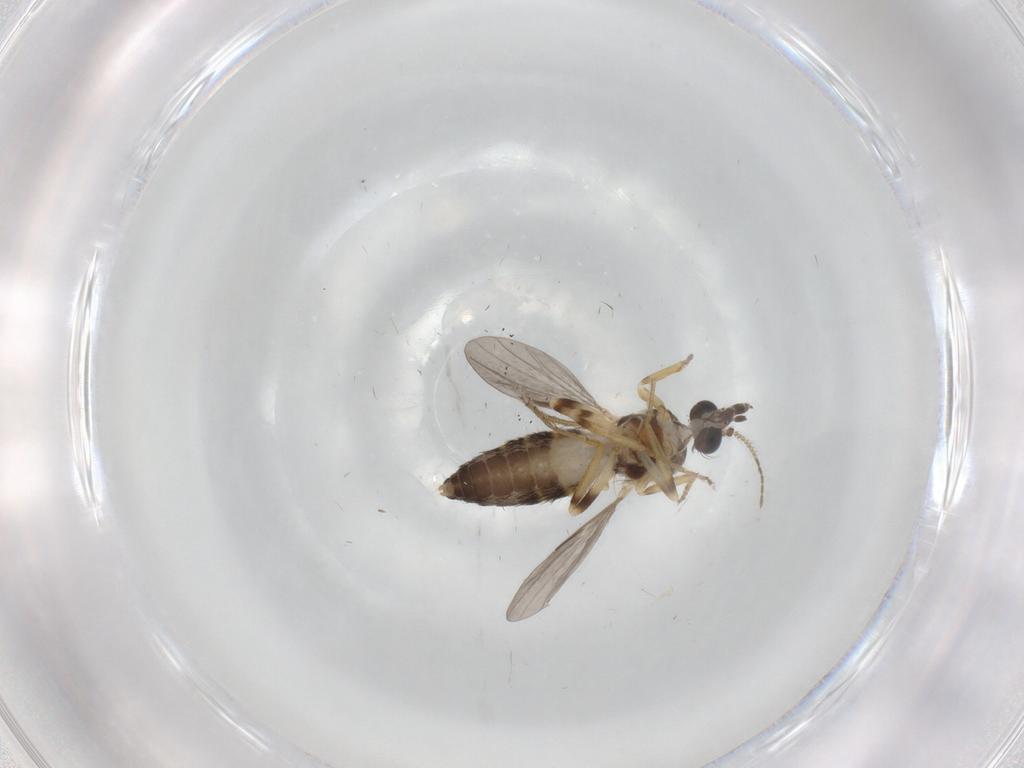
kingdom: Animalia
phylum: Arthropoda
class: Insecta
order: Diptera
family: Ceratopogonidae
